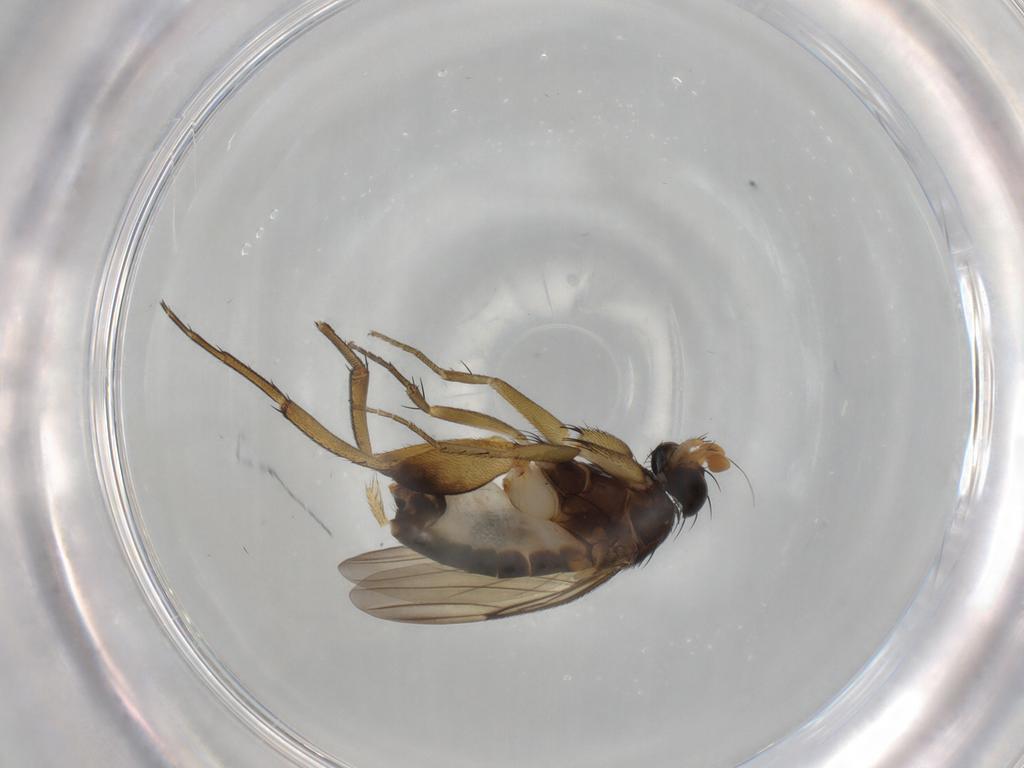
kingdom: Animalia
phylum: Arthropoda
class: Insecta
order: Diptera
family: Phoridae
